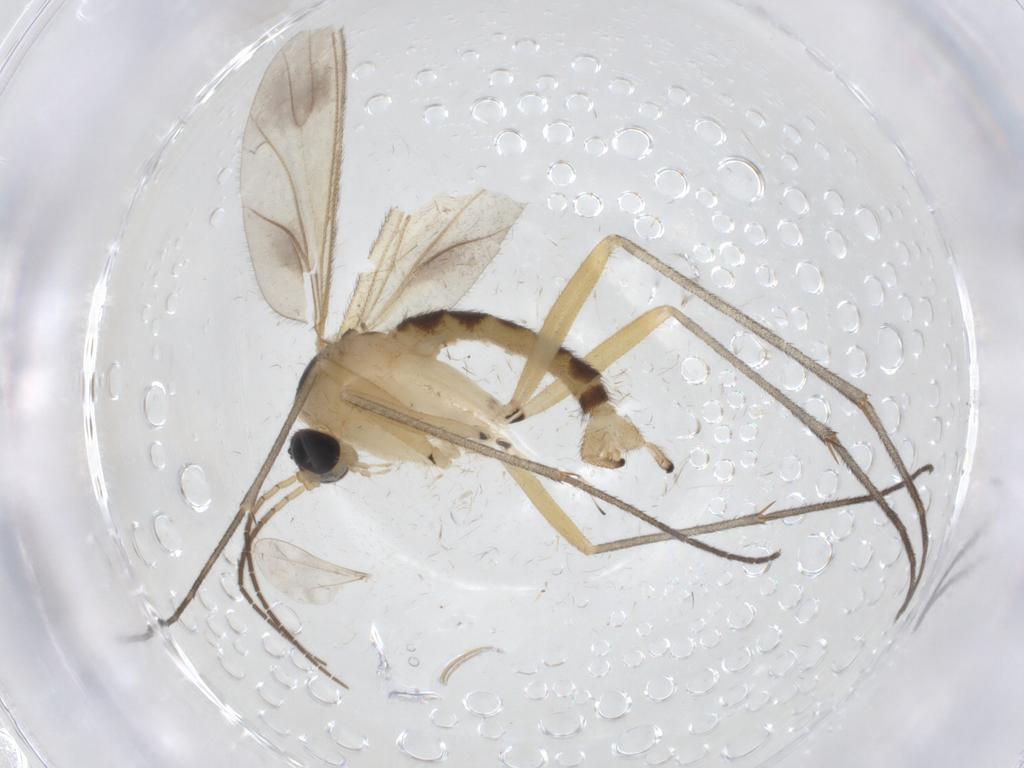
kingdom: Animalia
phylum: Arthropoda
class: Insecta
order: Diptera
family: Sciaridae
